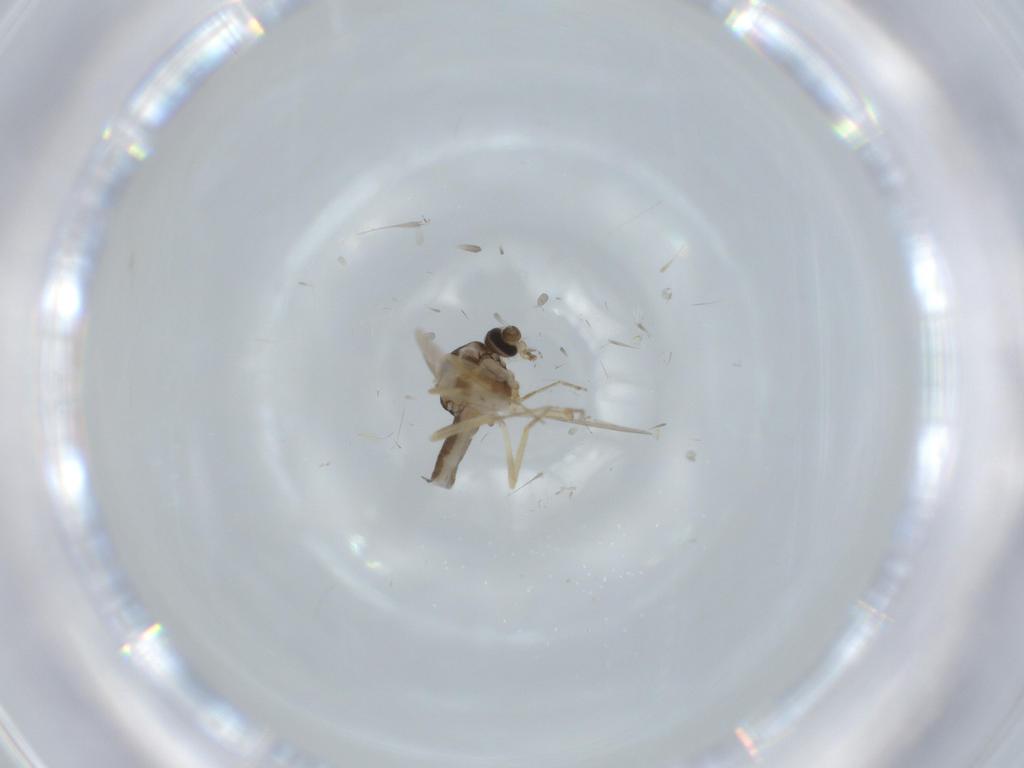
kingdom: Animalia
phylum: Arthropoda
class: Insecta
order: Diptera
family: Ceratopogonidae
